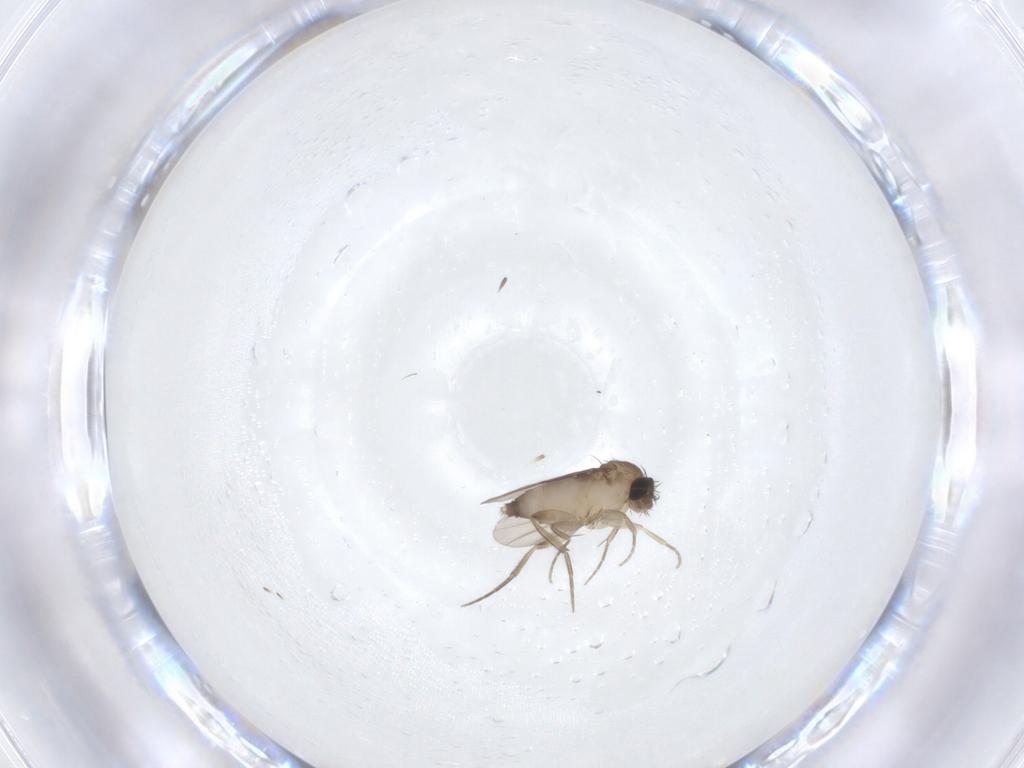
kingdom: Animalia
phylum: Arthropoda
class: Insecta
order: Diptera
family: Phoridae
